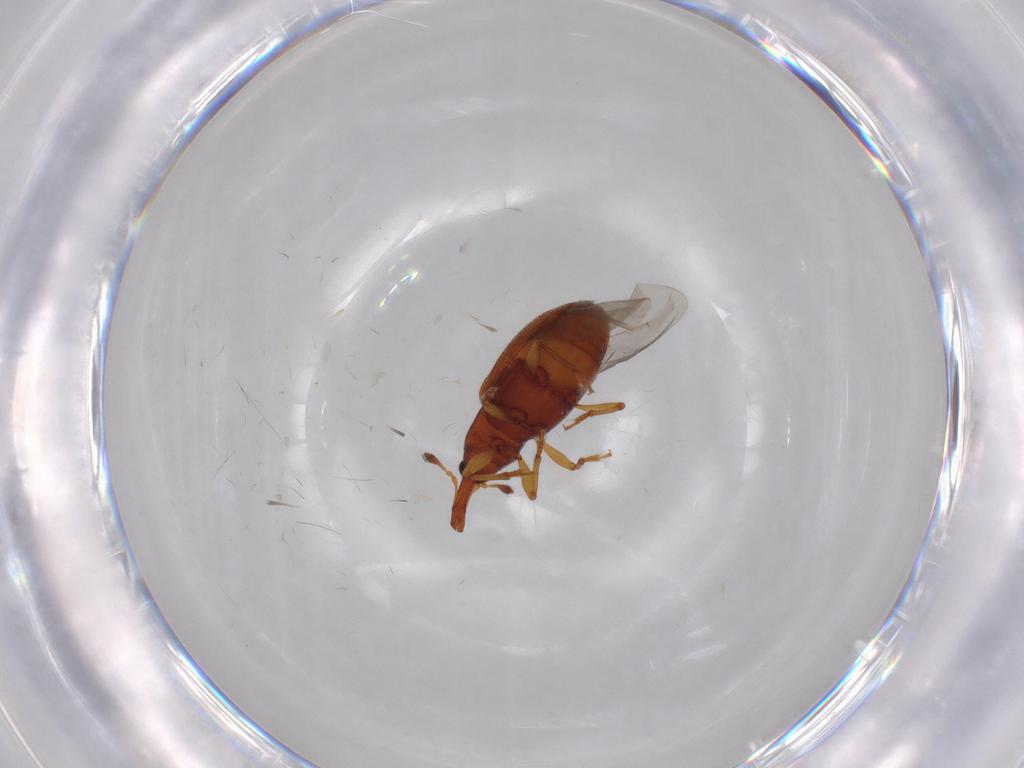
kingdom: Animalia
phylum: Arthropoda
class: Insecta
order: Coleoptera
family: Curculionidae
